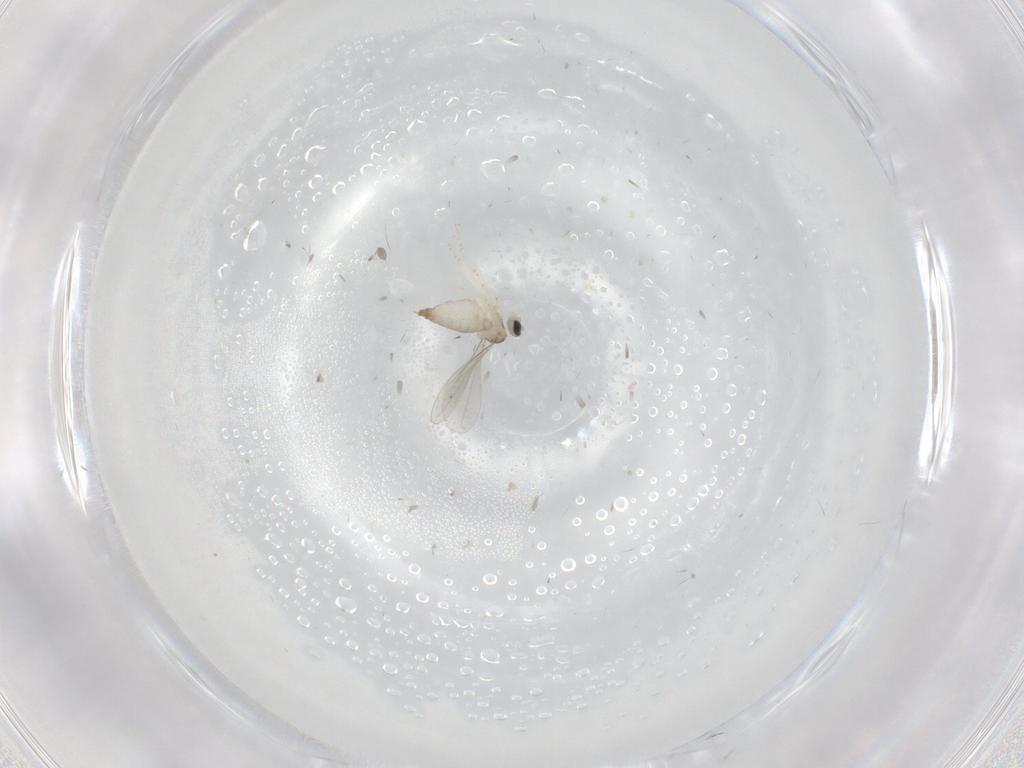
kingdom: Animalia
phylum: Arthropoda
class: Insecta
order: Diptera
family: Cecidomyiidae
